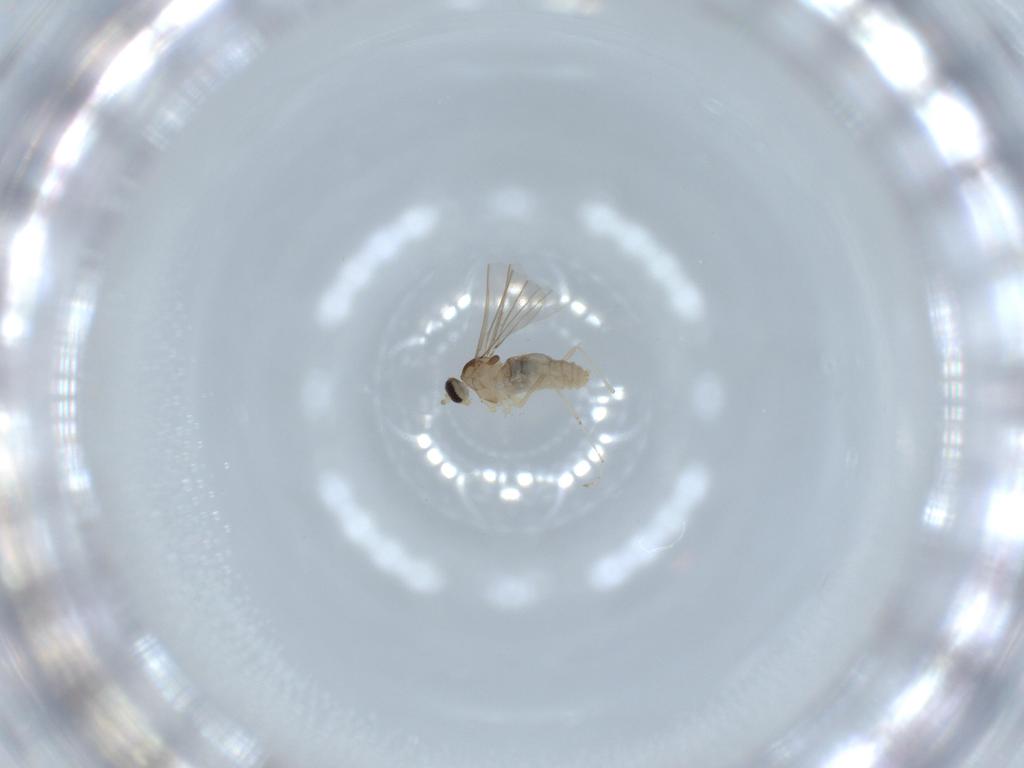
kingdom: Animalia
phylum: Arthropoda
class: Insecta
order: Diptera
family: Cecidomyiidae
